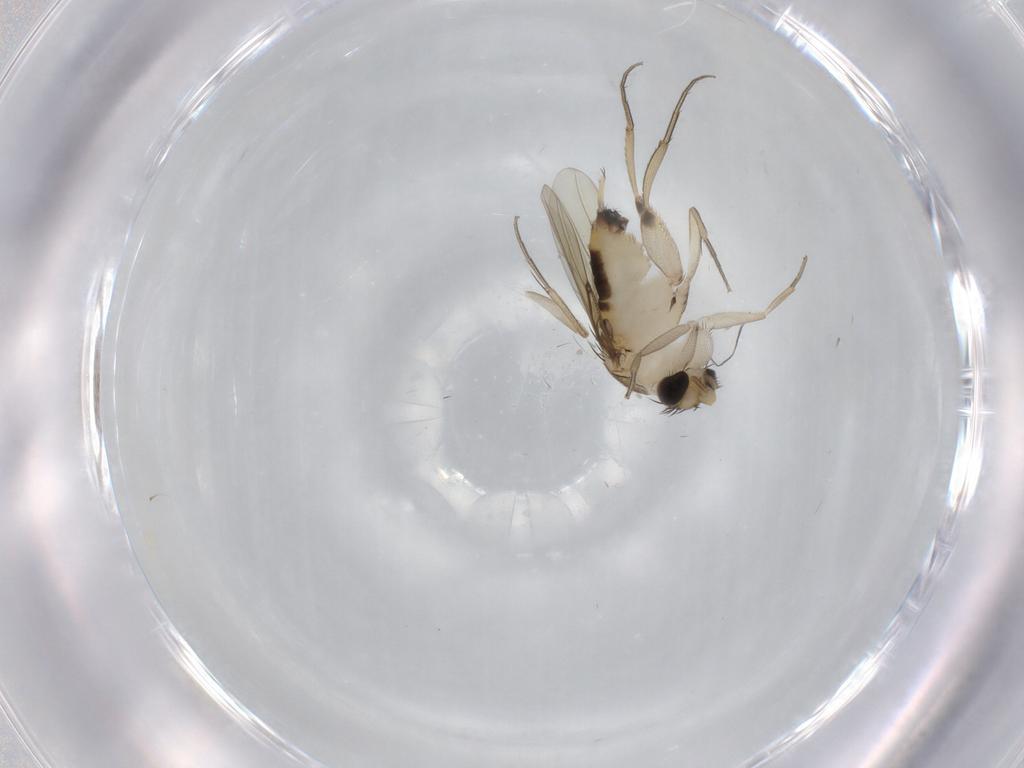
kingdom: Animalia
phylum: Arthropoda
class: Insecta
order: Diptera
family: Phoridae
